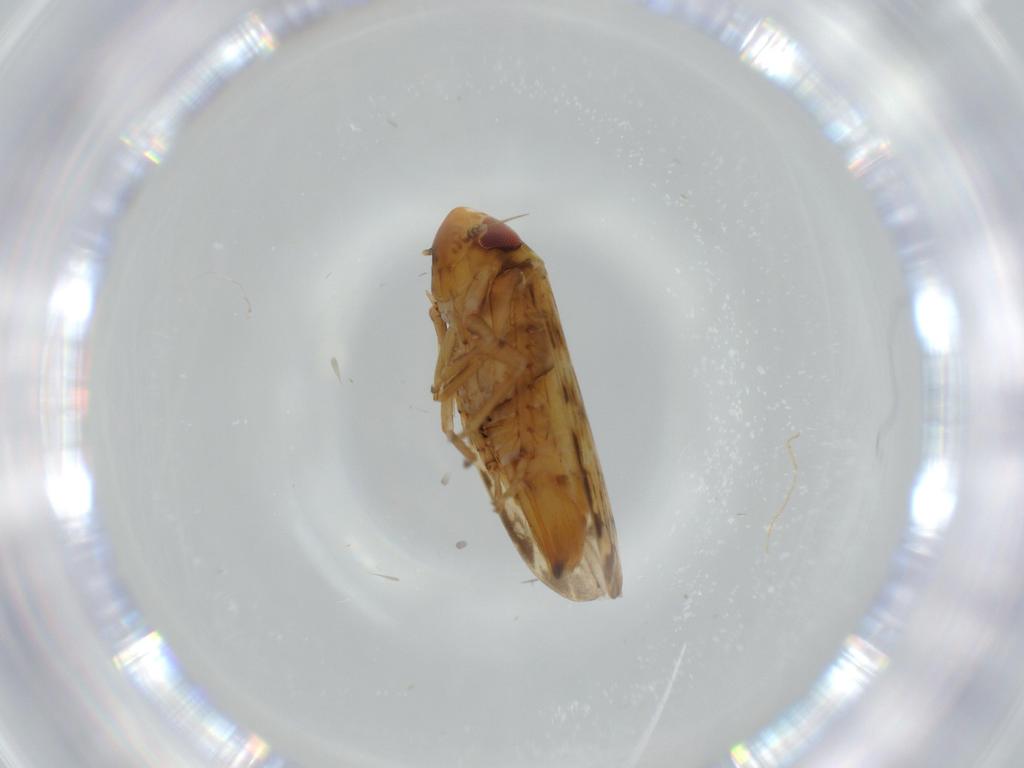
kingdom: Animalia
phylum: Arthropoda
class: Insecta
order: Hemiptera
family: Cicadellidae
